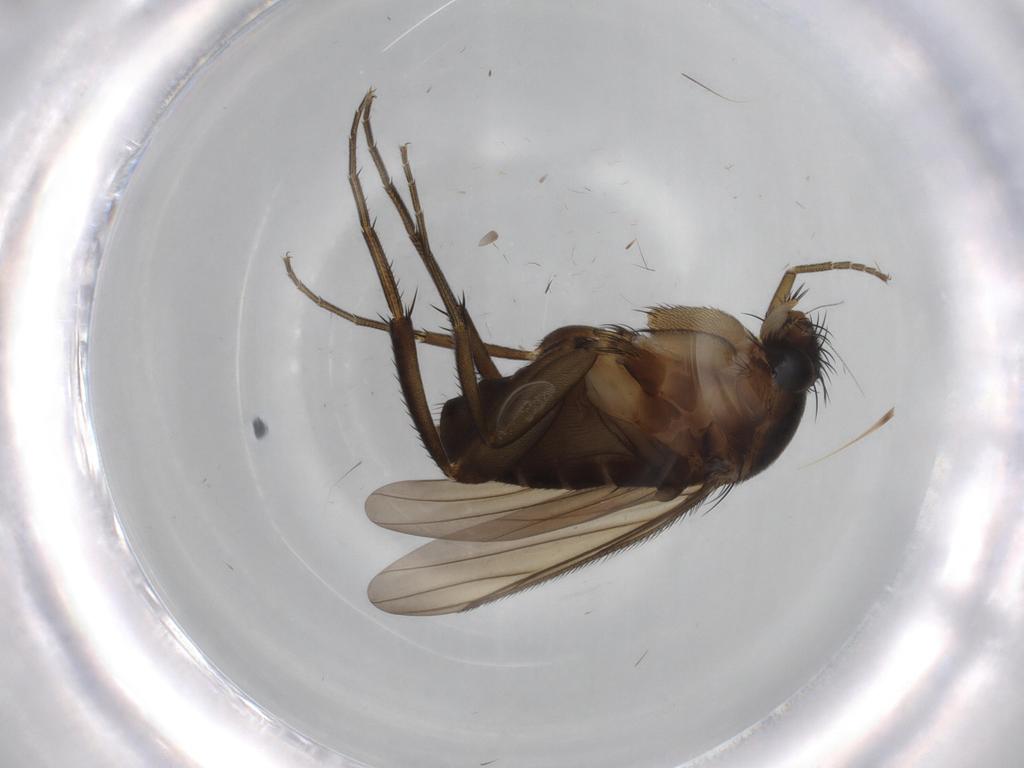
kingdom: Animalia
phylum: Arthropoda
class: Insecta
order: Diptera
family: Phoridae
